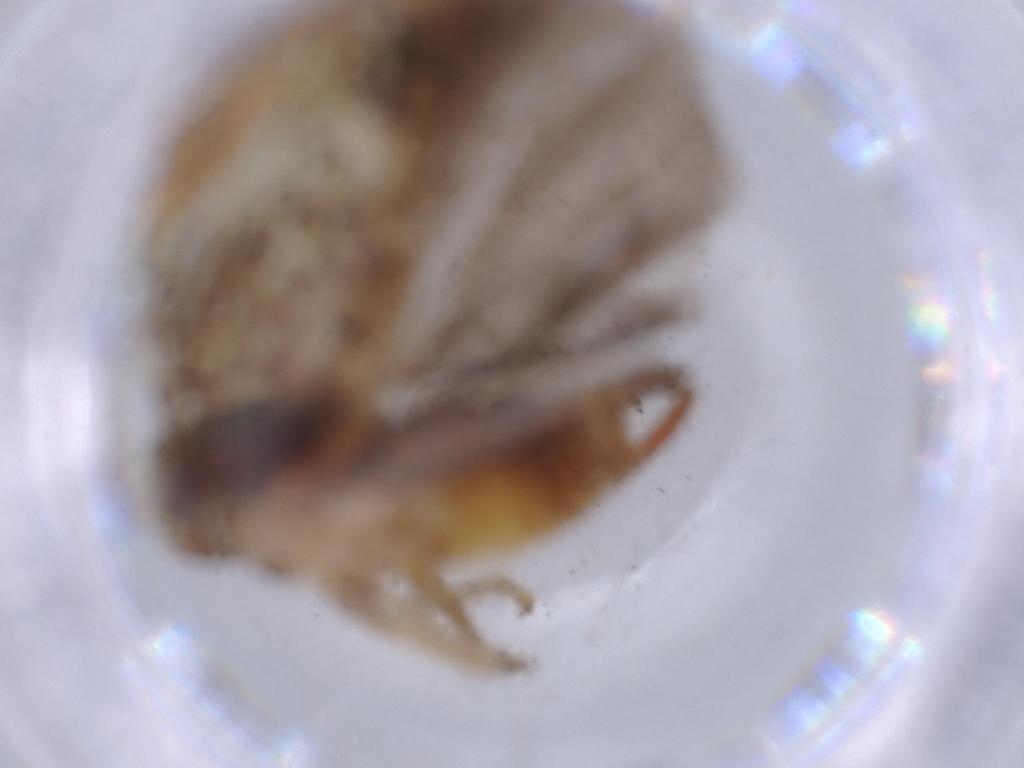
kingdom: Animalia
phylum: Arthropoda
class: Insecta
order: Hemiptera
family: Cixiidae
